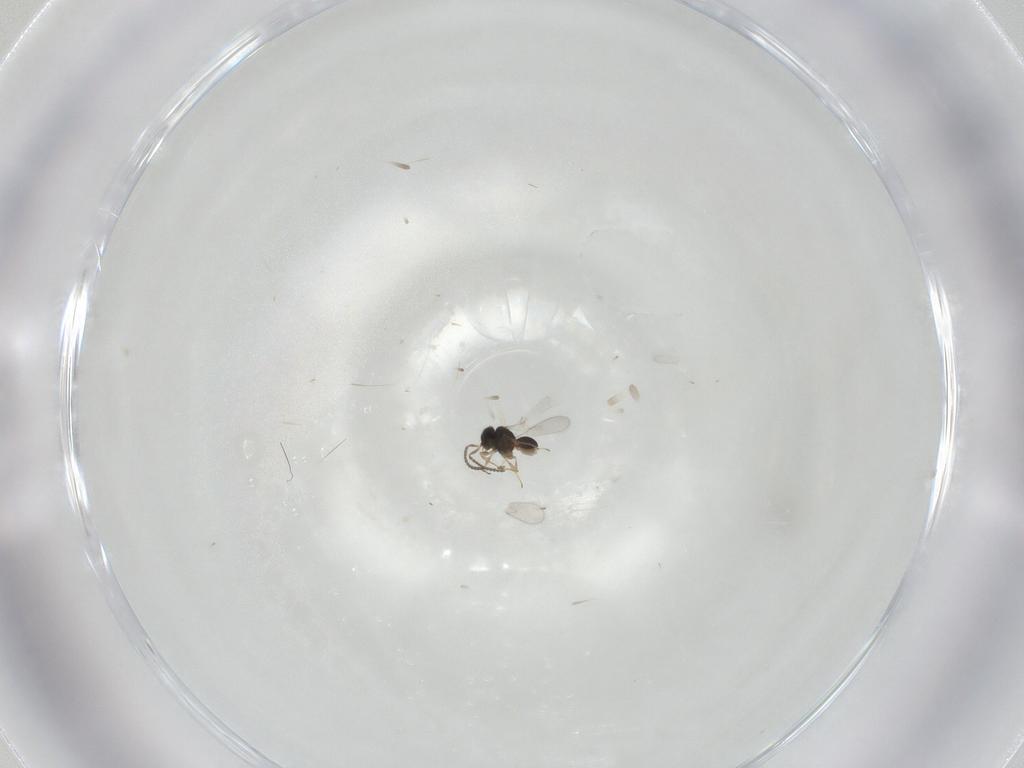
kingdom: Animalia
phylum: Arthropoda
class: Insecta
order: Hymenoptera
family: Scelionidae
